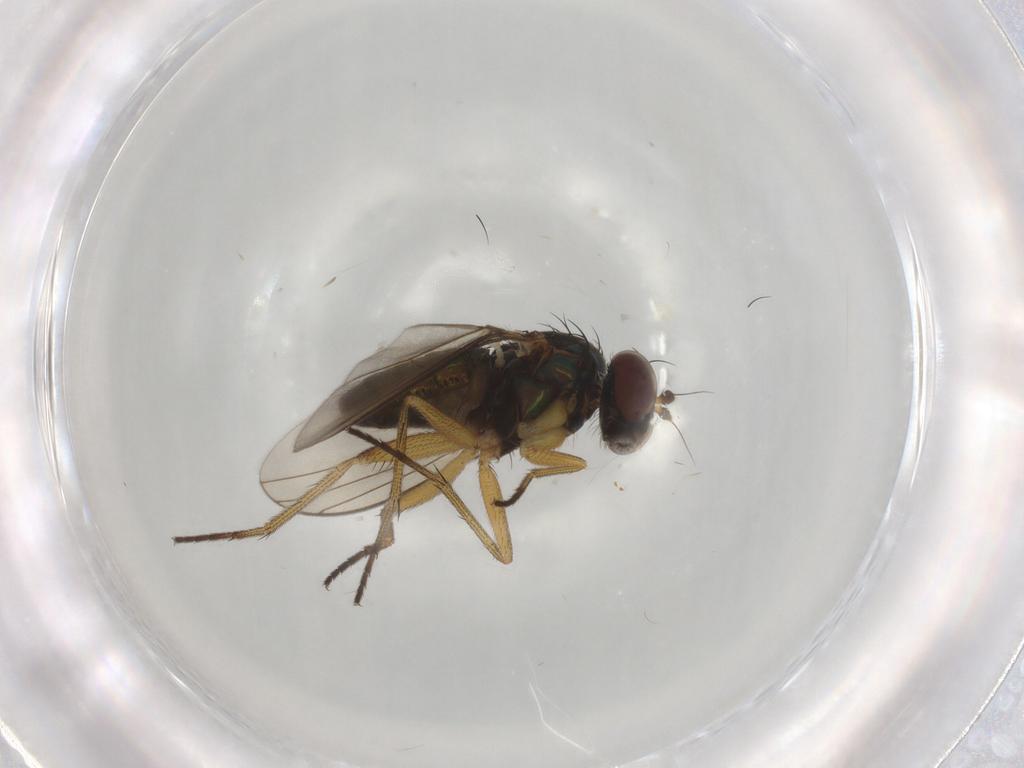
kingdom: Animalia
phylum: Arthropoda
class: Insecta
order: Diptera
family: Dolichopodidae
